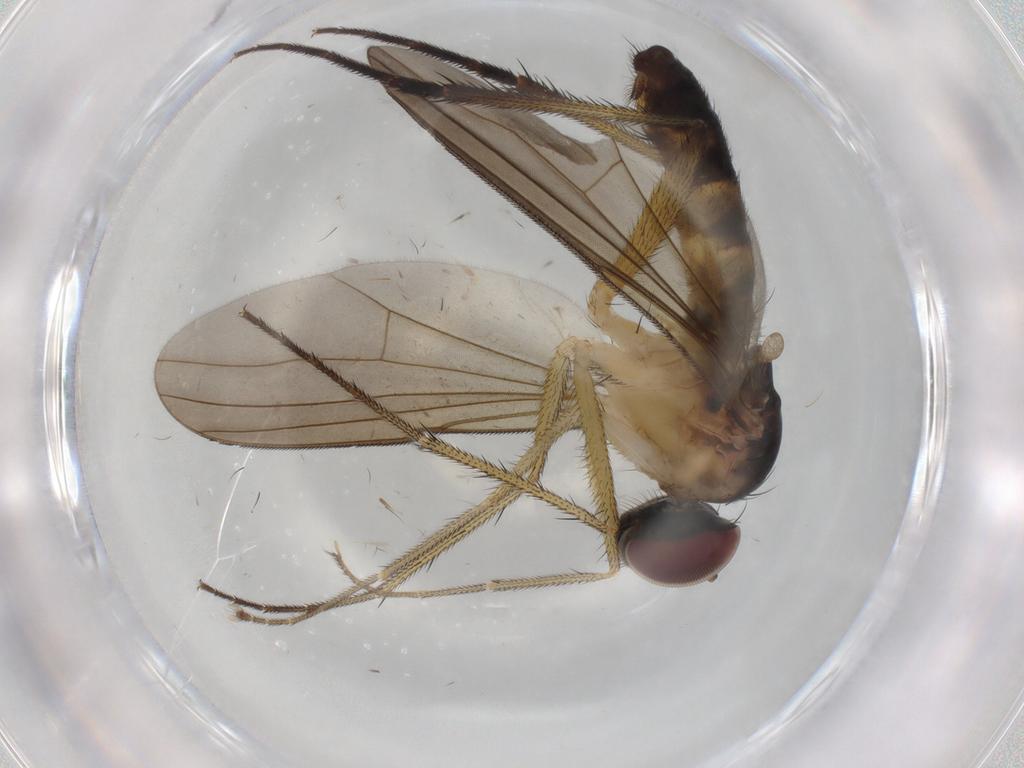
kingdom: Animalia
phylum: Arthropoda
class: Insecta
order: Diptera
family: Dolichopodidae
